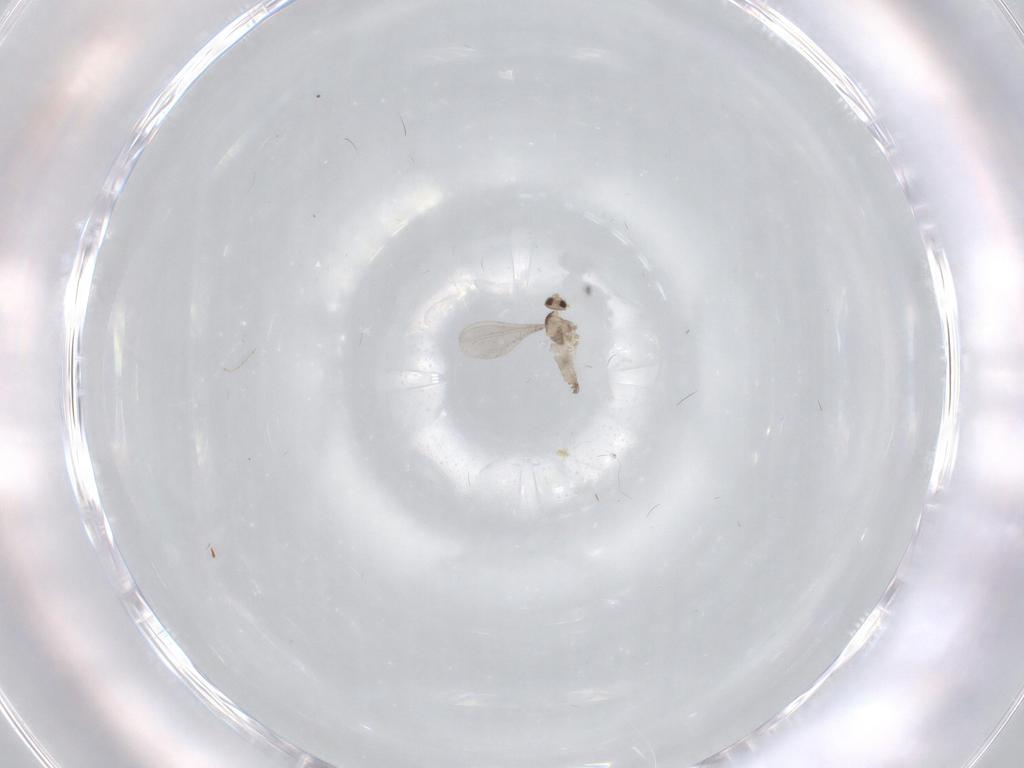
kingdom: Animalia
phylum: Arthropoda
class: Insecta
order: Diptera
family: Cecidomyiidae
